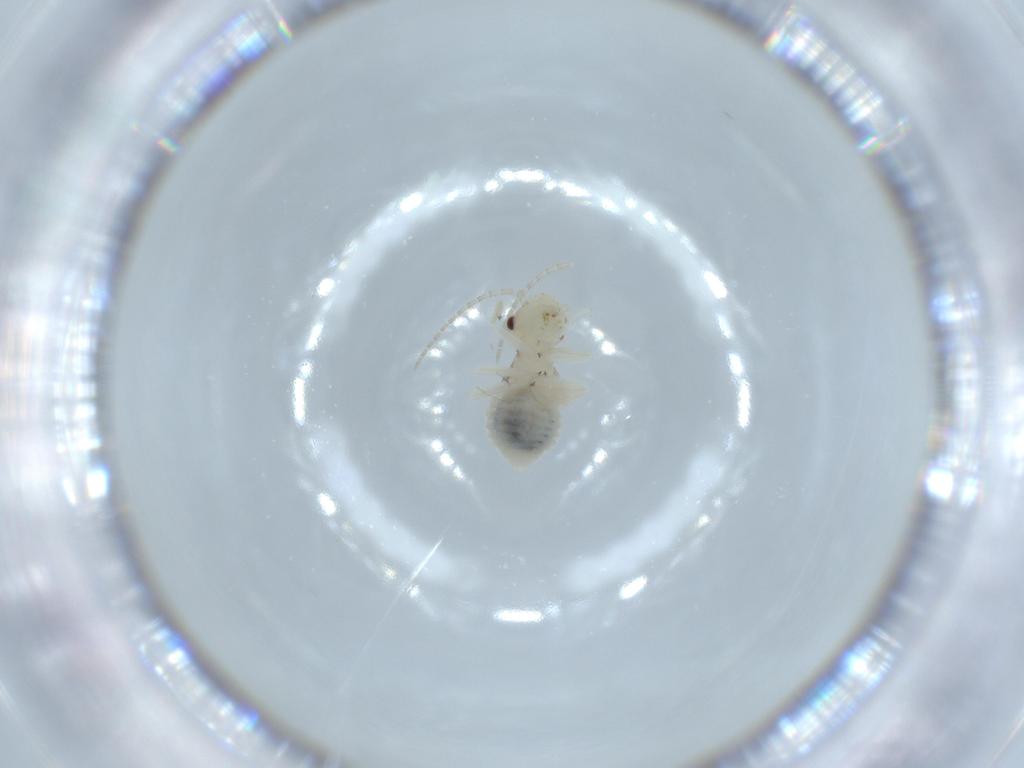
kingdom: Animalia
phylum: Arthropoda
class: Insecta
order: Psocodea
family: Amphipsocidae
